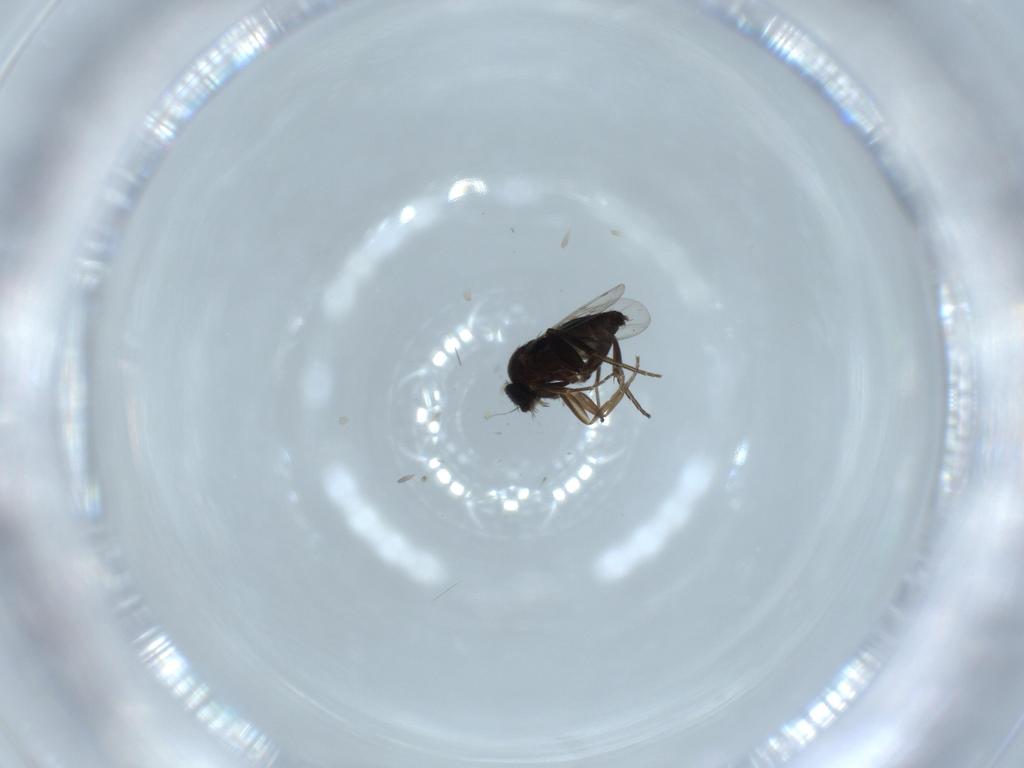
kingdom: Animalia
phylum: Arthropoda
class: Insecta
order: Diptera
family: Phoridae
